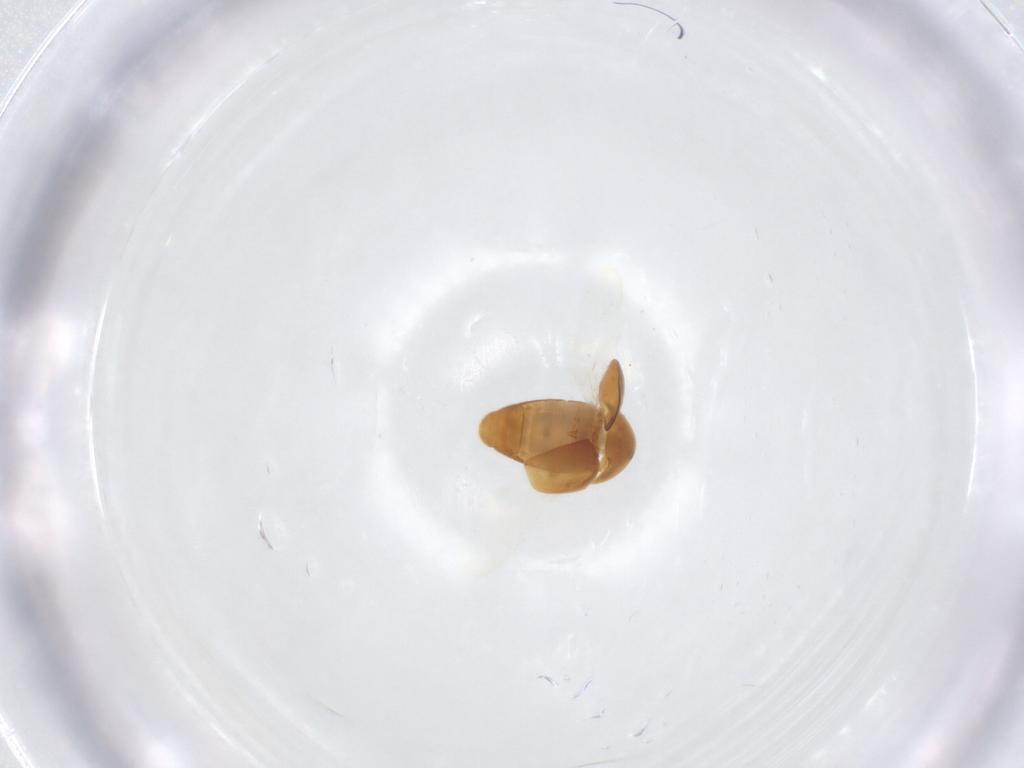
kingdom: Animalia
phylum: Arthropoda
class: Insecta
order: Coleoptera
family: Corylophidae
